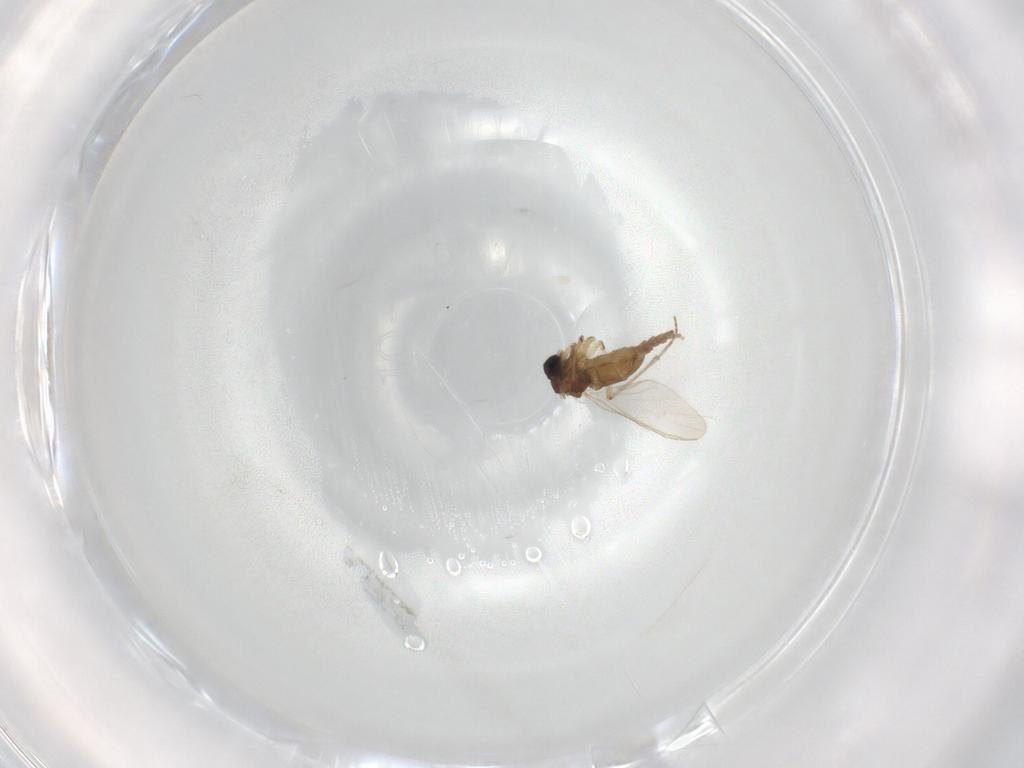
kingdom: Animalia
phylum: Arthropoda
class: Insecta
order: Diptera
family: Sciaridae
